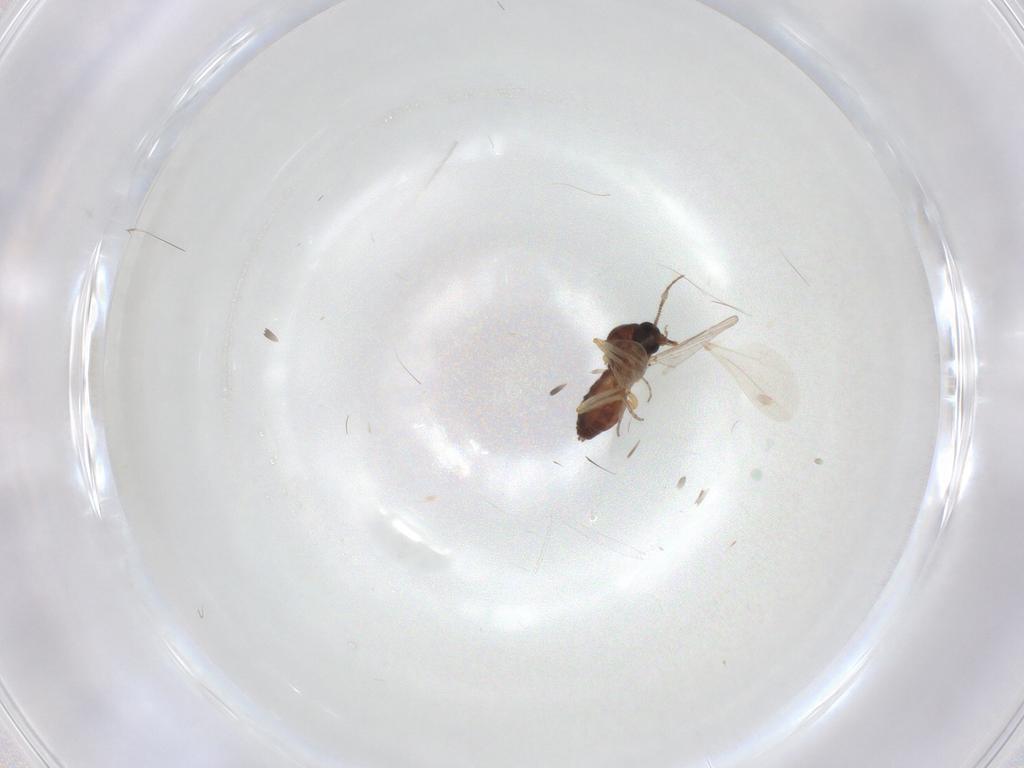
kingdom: Animalia
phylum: Arthropoda
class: Insecta
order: Diptera
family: Ceratopogonidae
